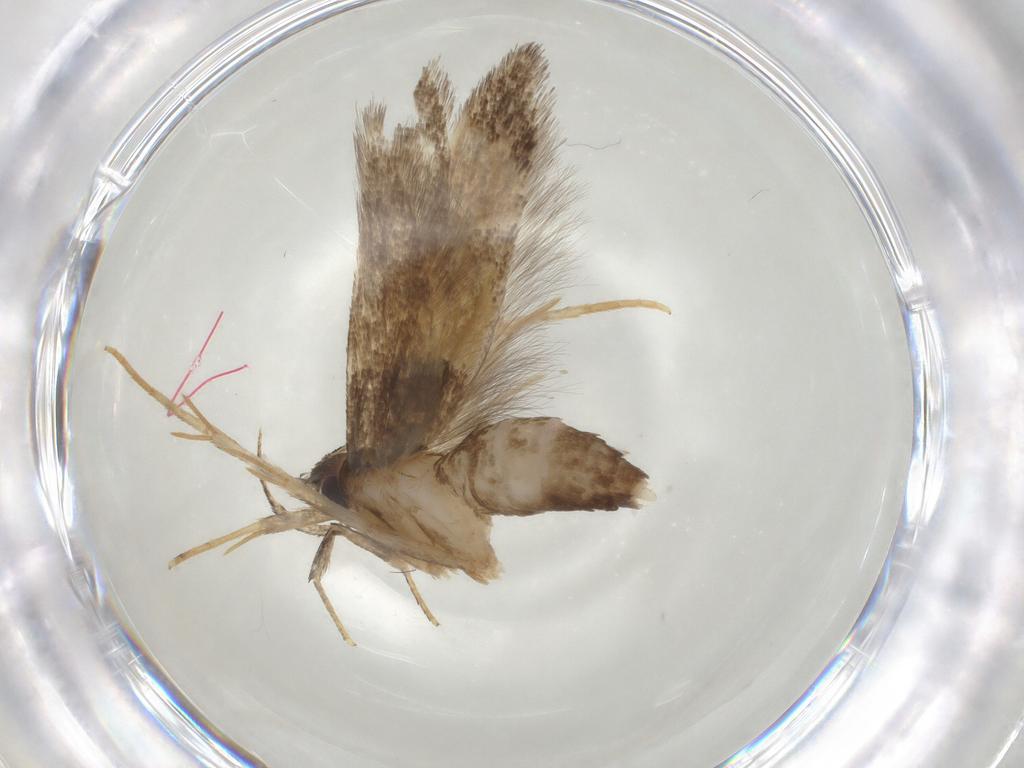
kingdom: Animalia
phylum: Arthropoda
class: Insecta
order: Lepidoptera
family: Cosmopterigidae
